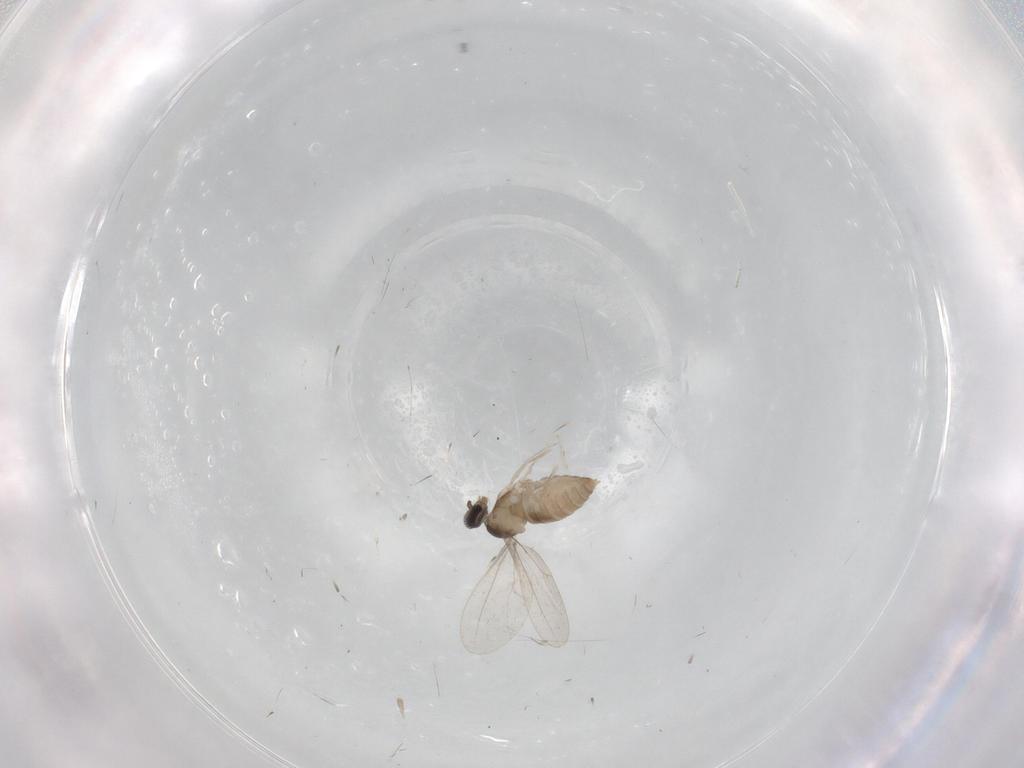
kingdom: Animalia
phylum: Arthropoda
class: Insecta
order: Diptera
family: Cecidomyiidae
